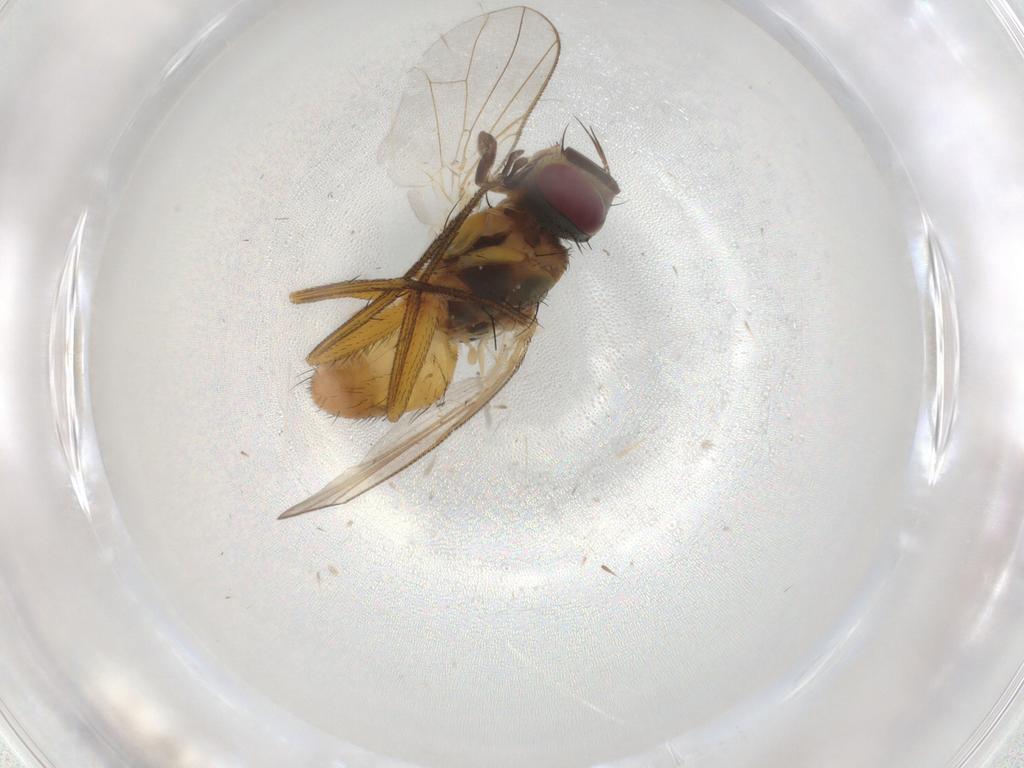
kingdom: Animalia
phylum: Arthropoda
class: Insecta
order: Diptera
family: Muscidae
